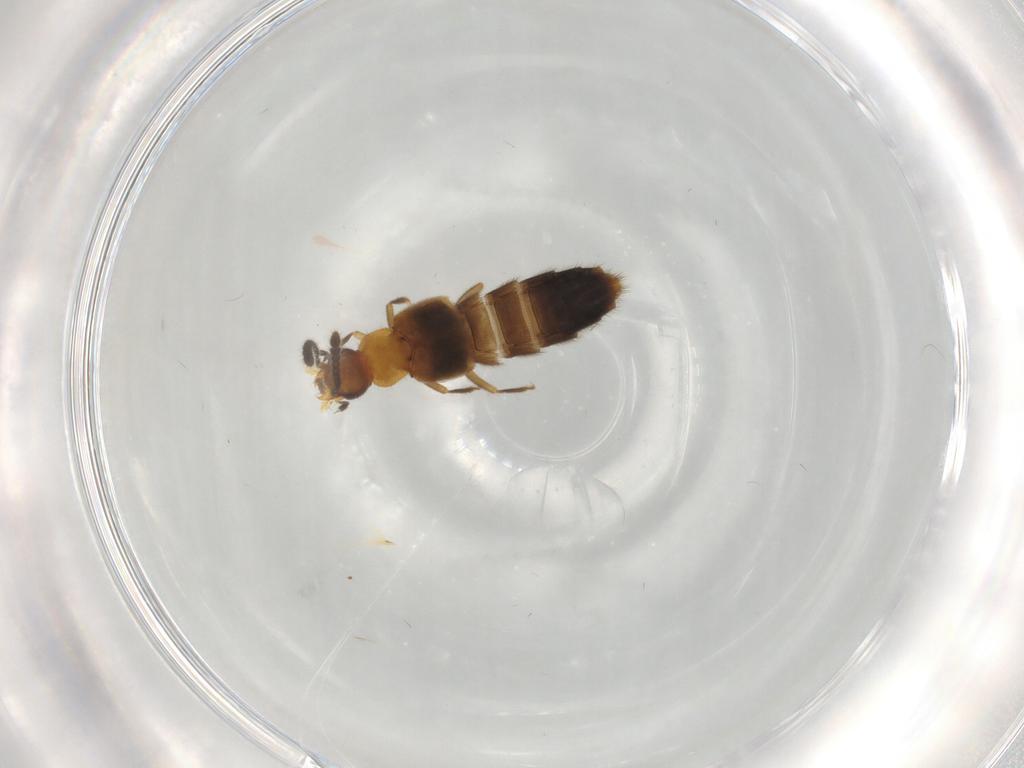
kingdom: Animalia
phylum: Arthropoda
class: Insecta
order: Coleoptera
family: Staphylinidae
